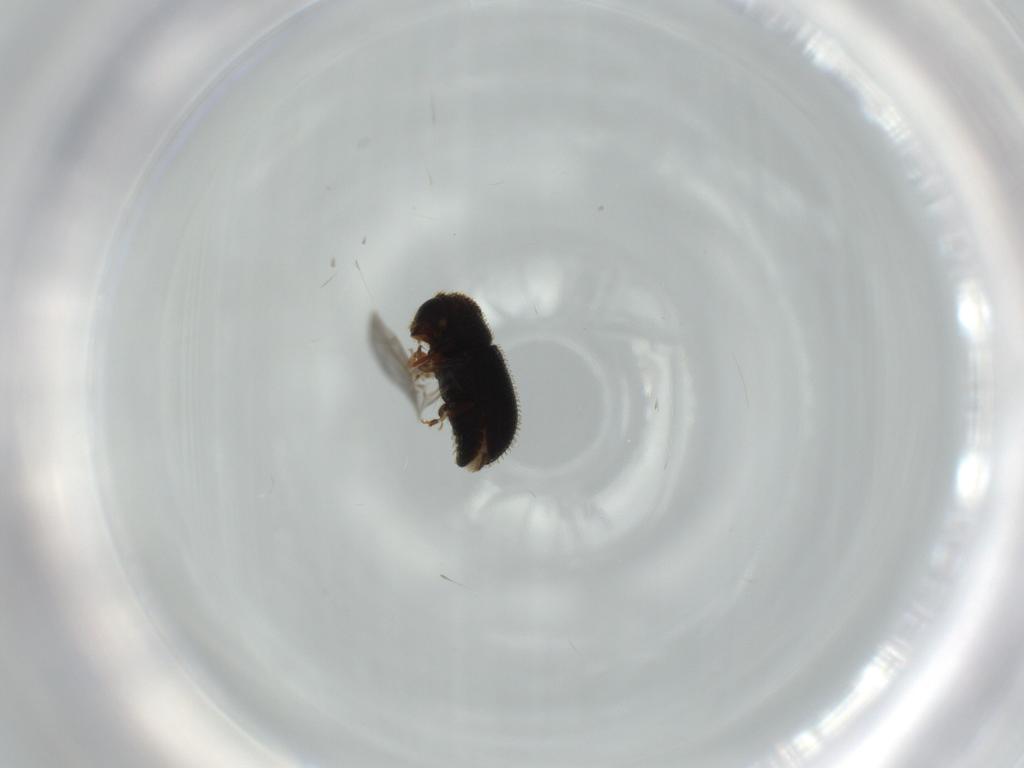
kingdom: Animalia
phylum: Arthropoda
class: Insecta
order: Coleoptera
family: Curculionidae
